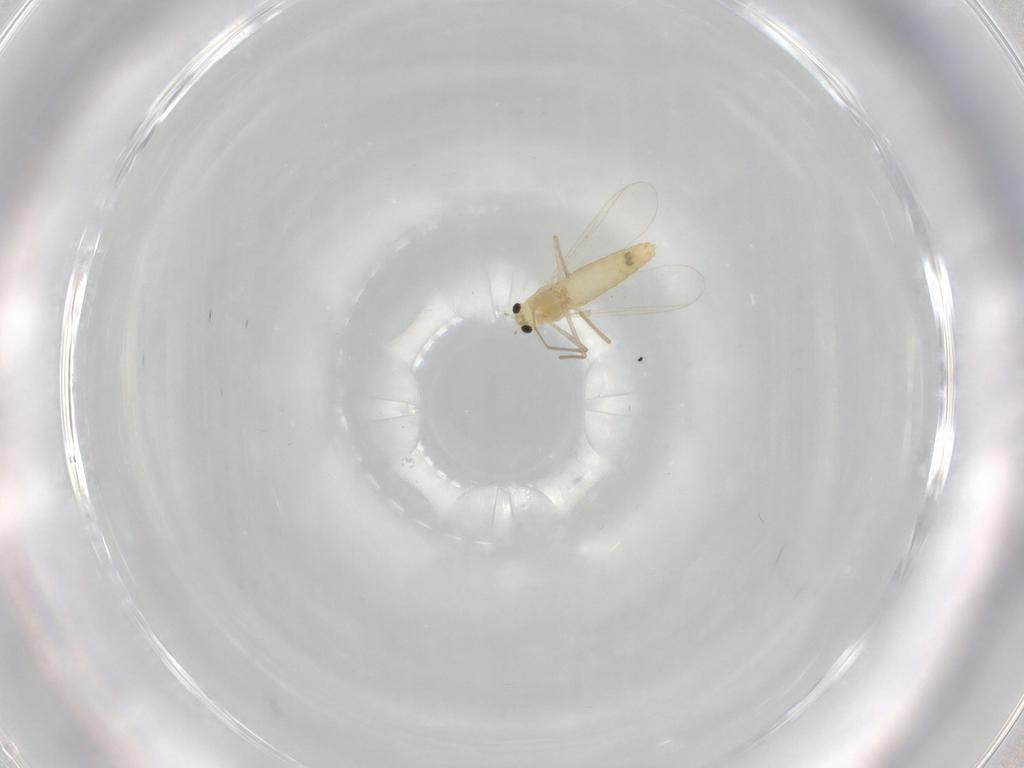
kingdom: Animalia
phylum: Arthropoda
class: Insecta
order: Diptera
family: Chironomidae
